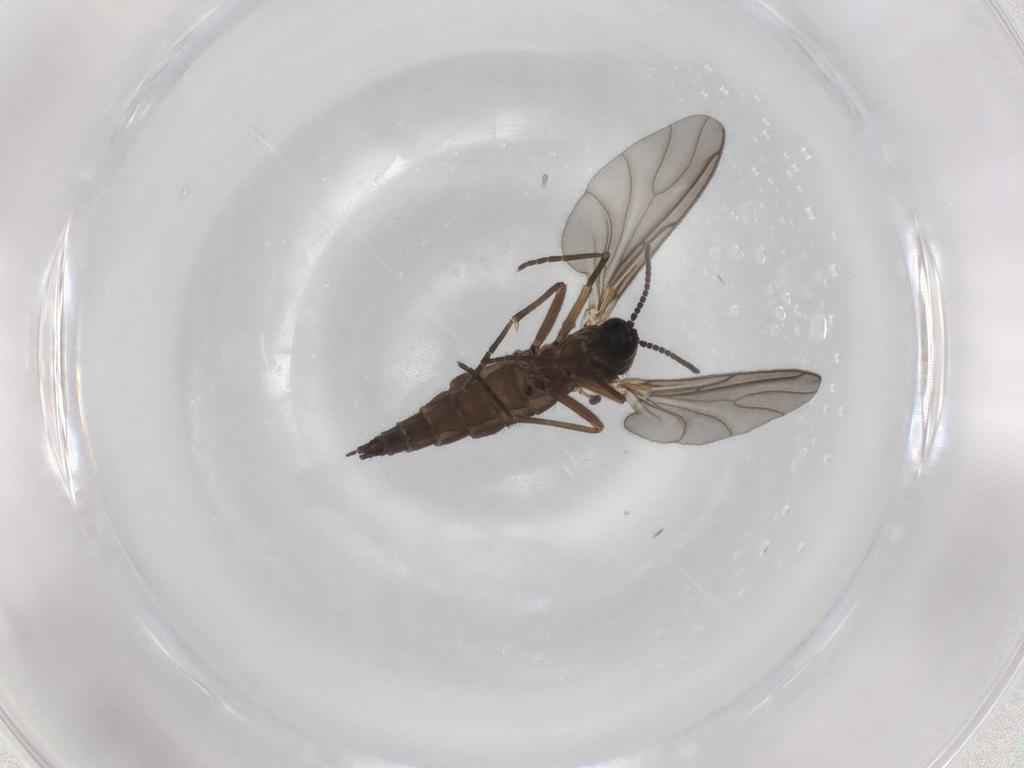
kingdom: Animalia
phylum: Arthropoda
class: Insecta
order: Diptera
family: Sciaridae
